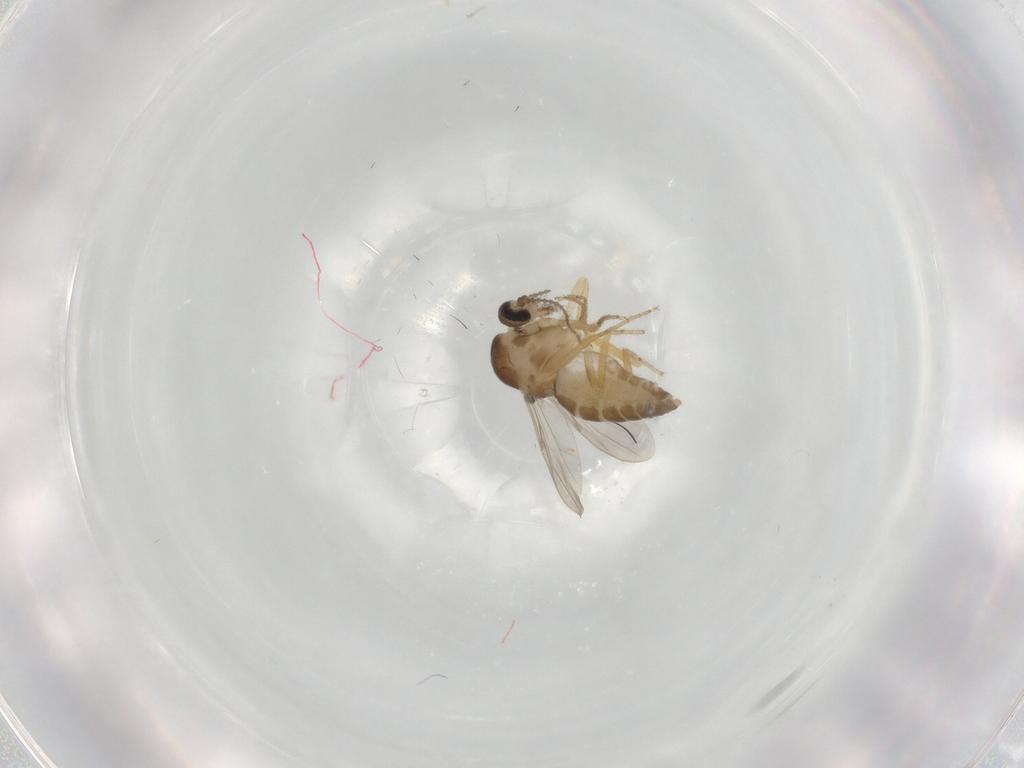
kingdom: Animalia
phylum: Arthropoda
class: Insecta
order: Diptera
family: Ceratopogonidae
